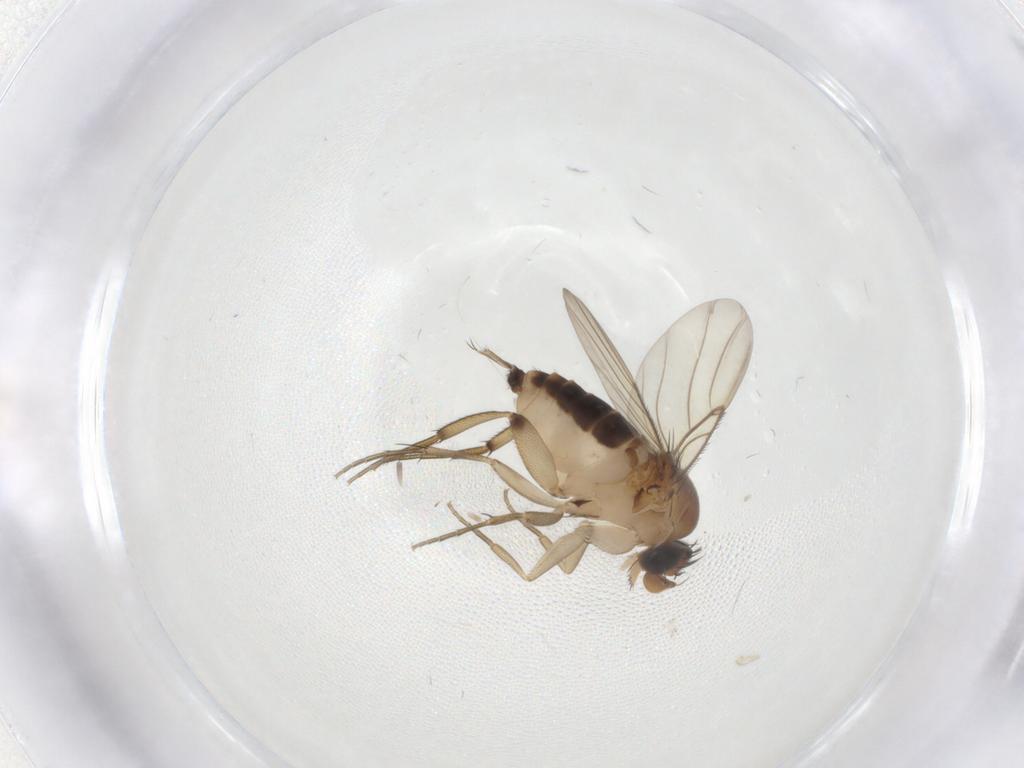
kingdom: Animalia
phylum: Arthropoda
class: Insecta
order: Diptera
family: Phoridae
